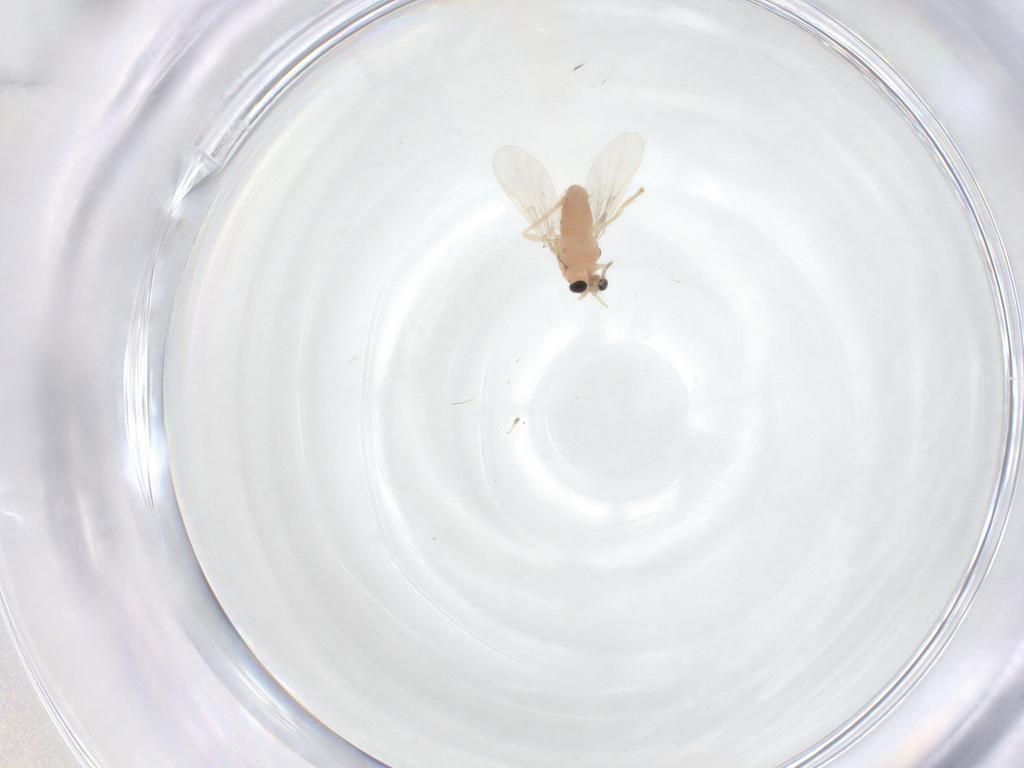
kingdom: Animalia
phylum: Arthropoda
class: Insecta
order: Diptera
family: Chironomidae
